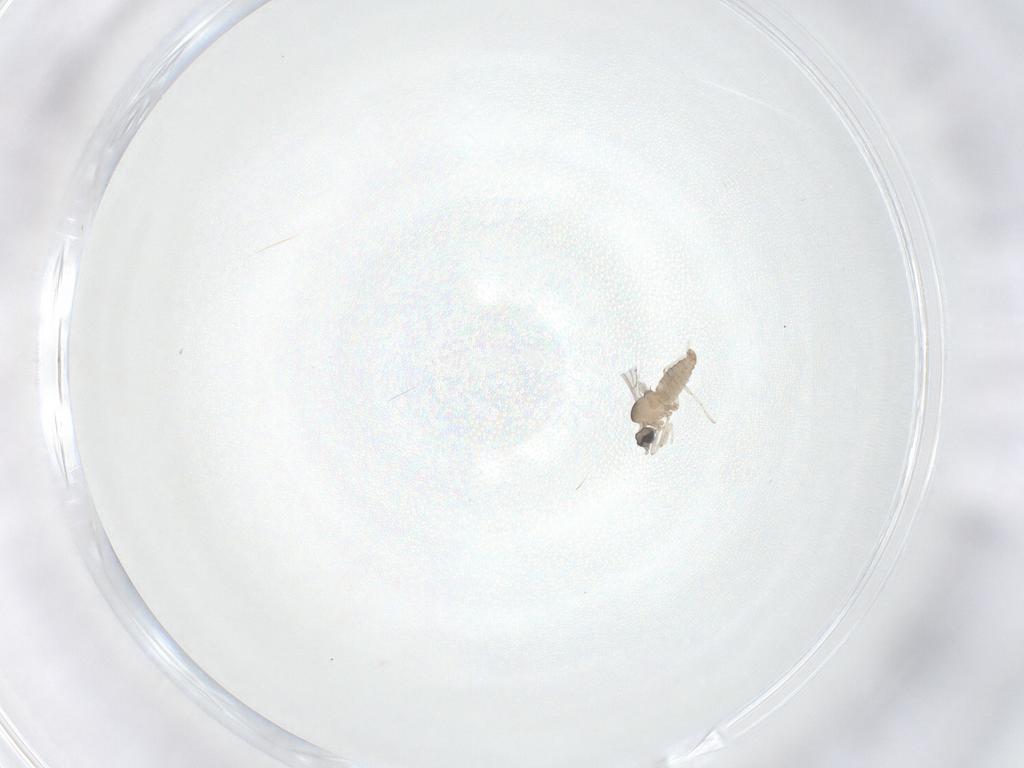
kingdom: Animalia
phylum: Arthropoda
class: Insecta
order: Diptera
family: Cecidomyiidae
